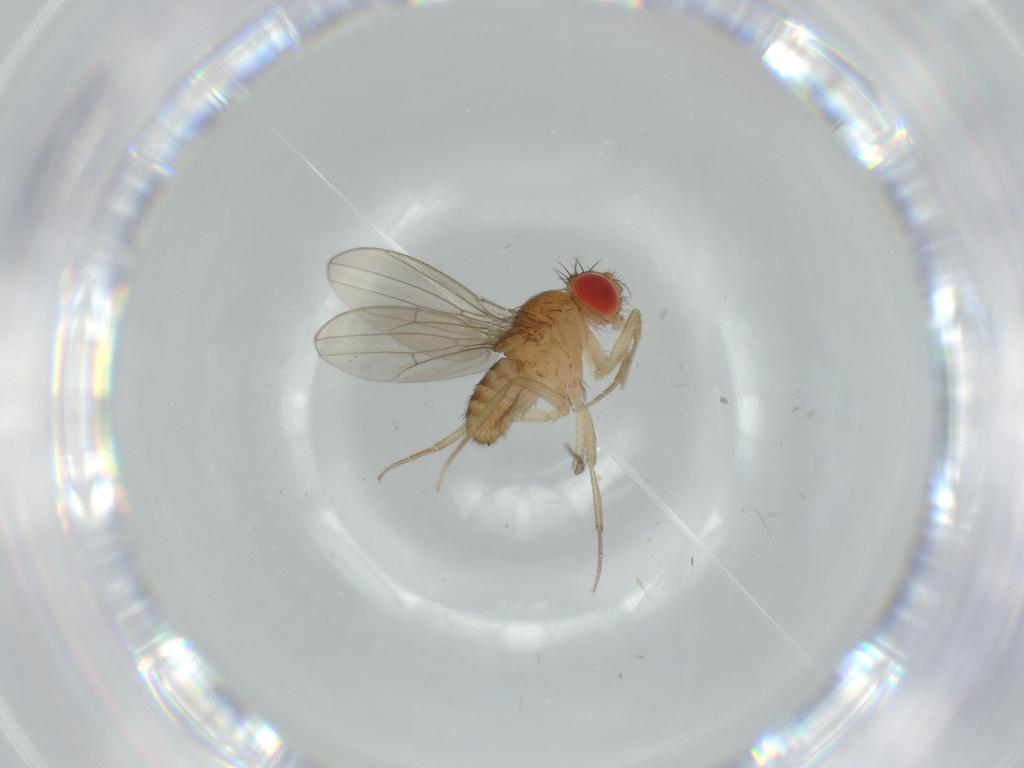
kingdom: Animalia
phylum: Arthropoda
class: Insecta
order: Diptera
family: Drosophilidae
